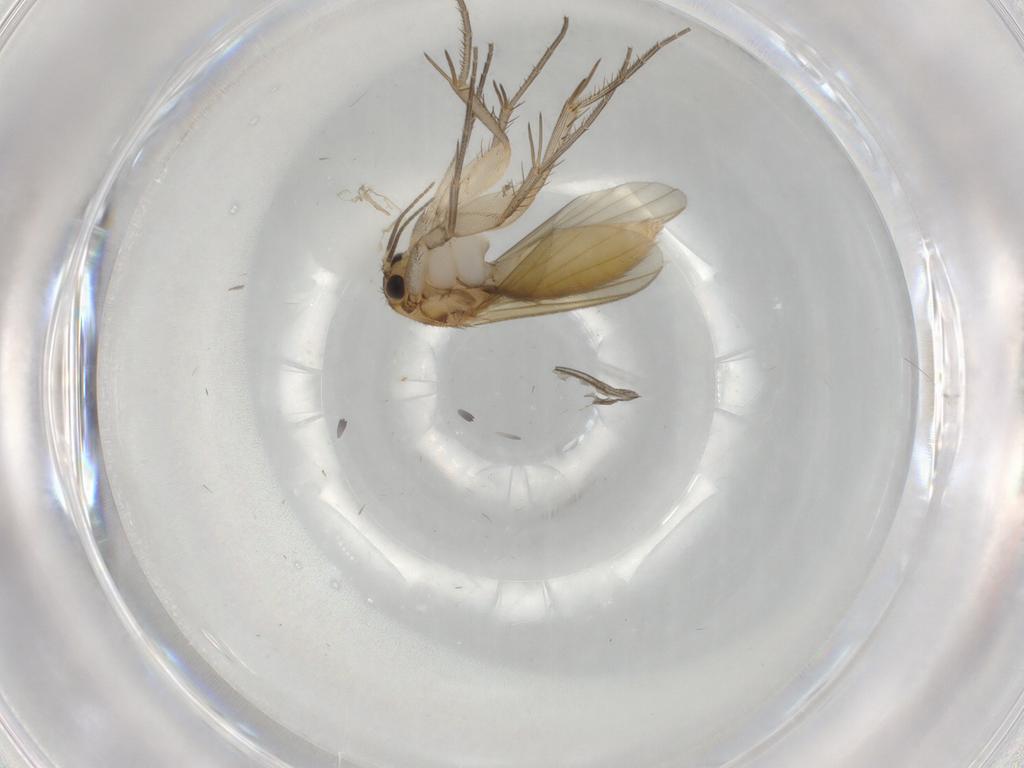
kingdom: Animalia
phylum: Arthropoda
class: Insecta
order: Diptera
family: Mycetophilidae
